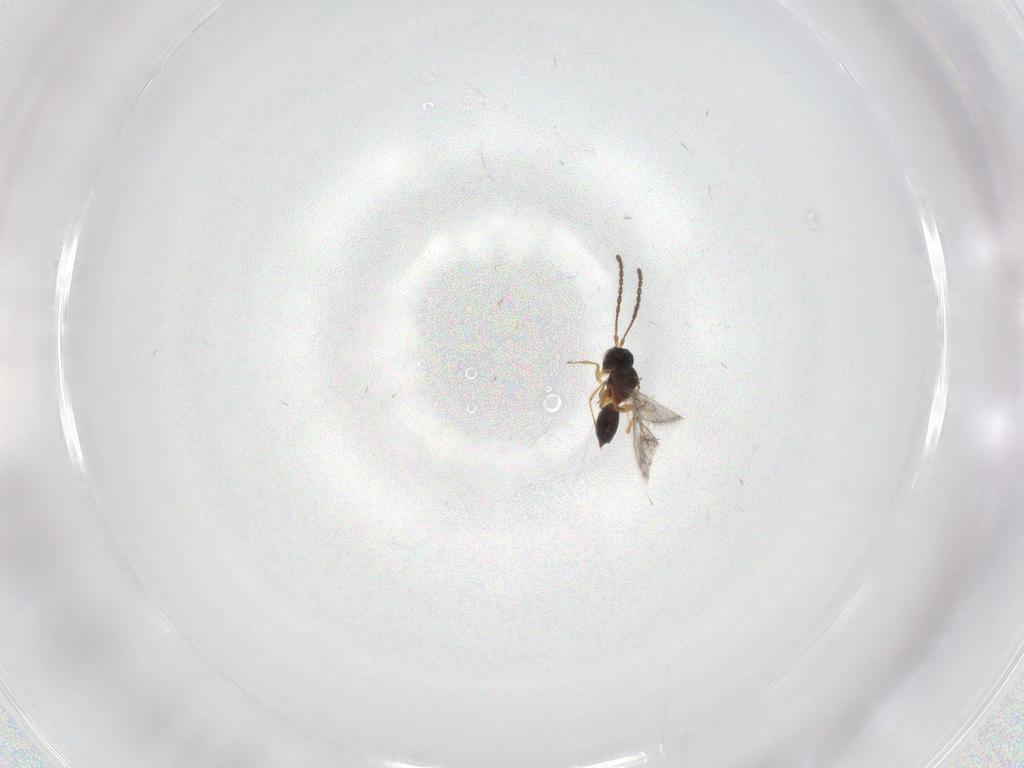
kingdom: Animalia
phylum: Arthropoda
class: Insecta
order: Hymenoptera
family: Figitidae
